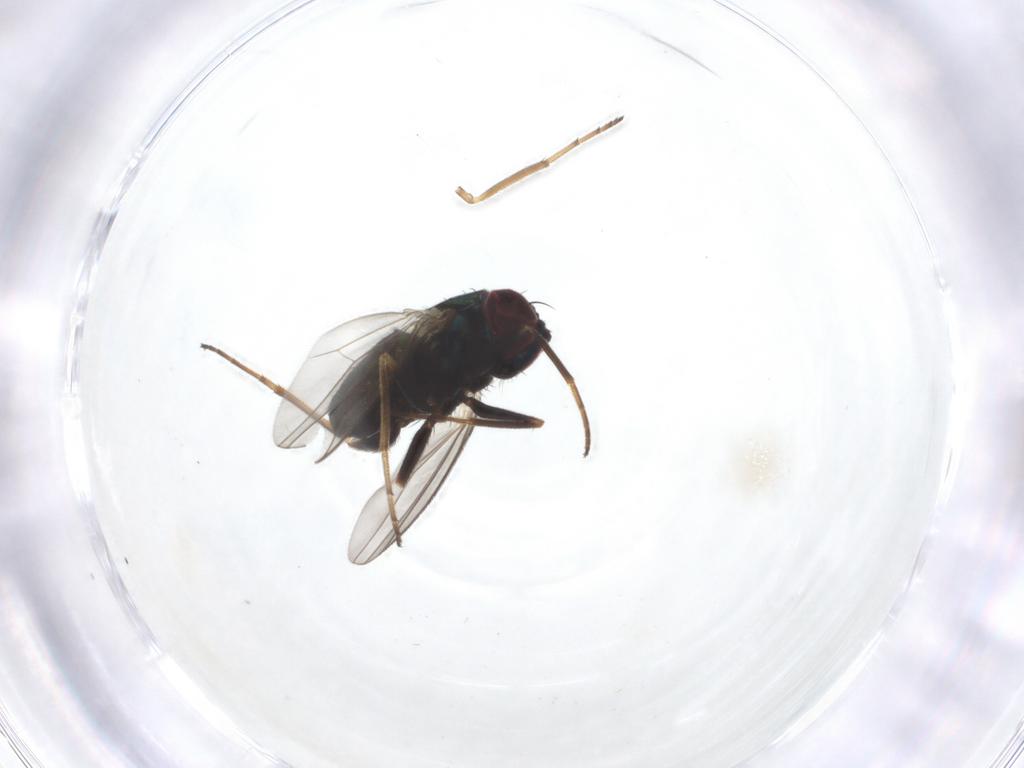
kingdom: Animalia
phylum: Arthropoda
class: Insecta
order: Diptera
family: Dolichopodidae
